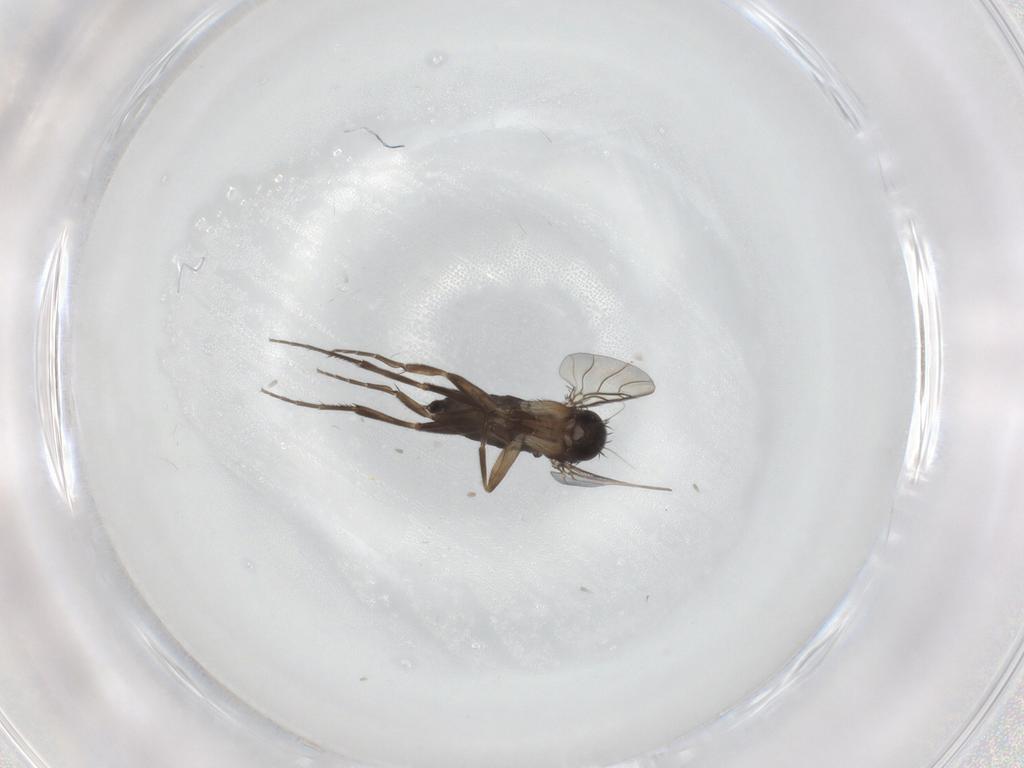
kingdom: Animalia
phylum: Arthropoda
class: Insecta
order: Diptera
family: Phoridae
